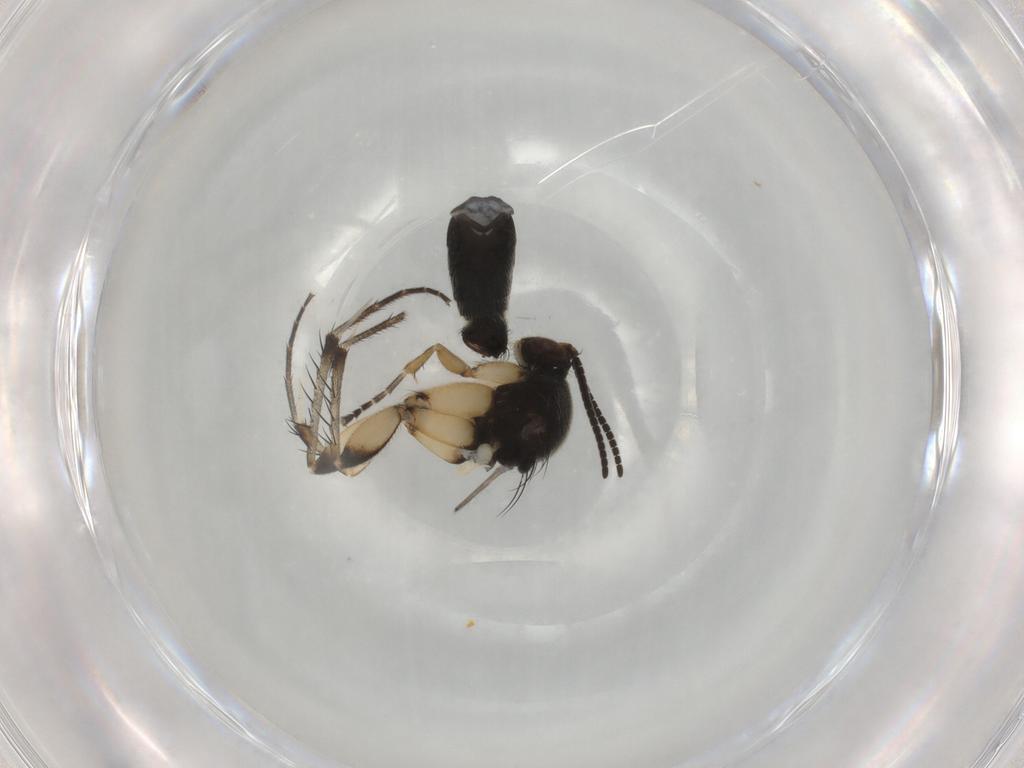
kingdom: Animalia
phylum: Arthropoda
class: Insecta
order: Diptera
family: Mycetophilidae
